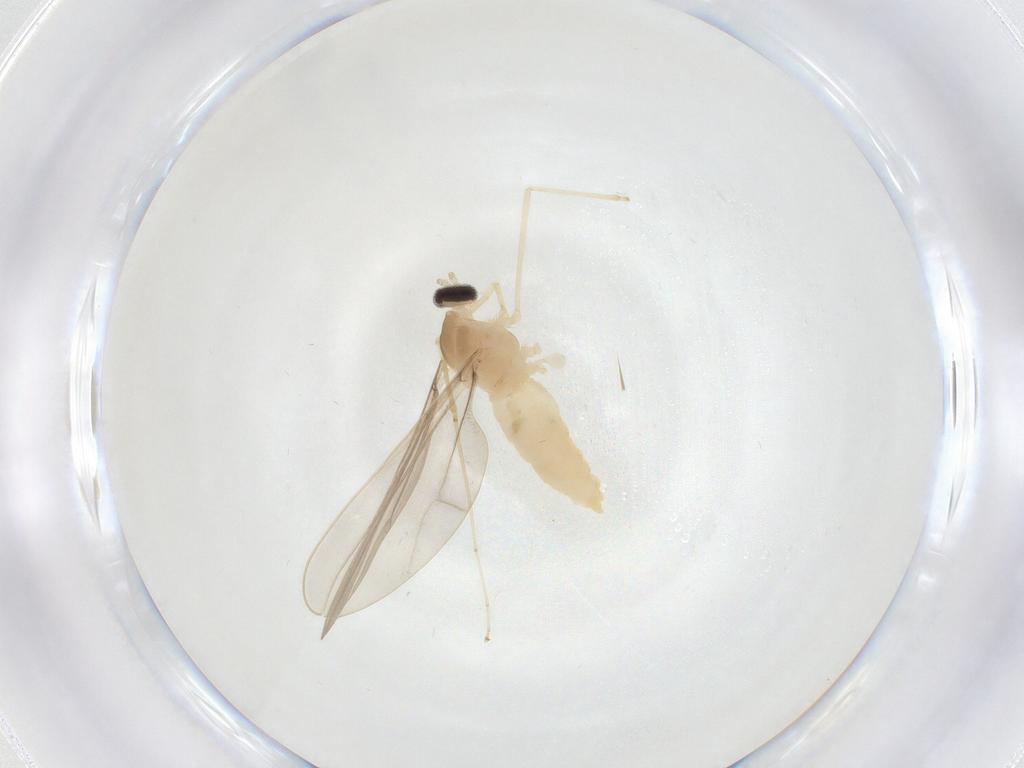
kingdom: Animalia
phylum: Arthropoda
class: Insecta
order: Diptera
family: Cecidomyiidae
